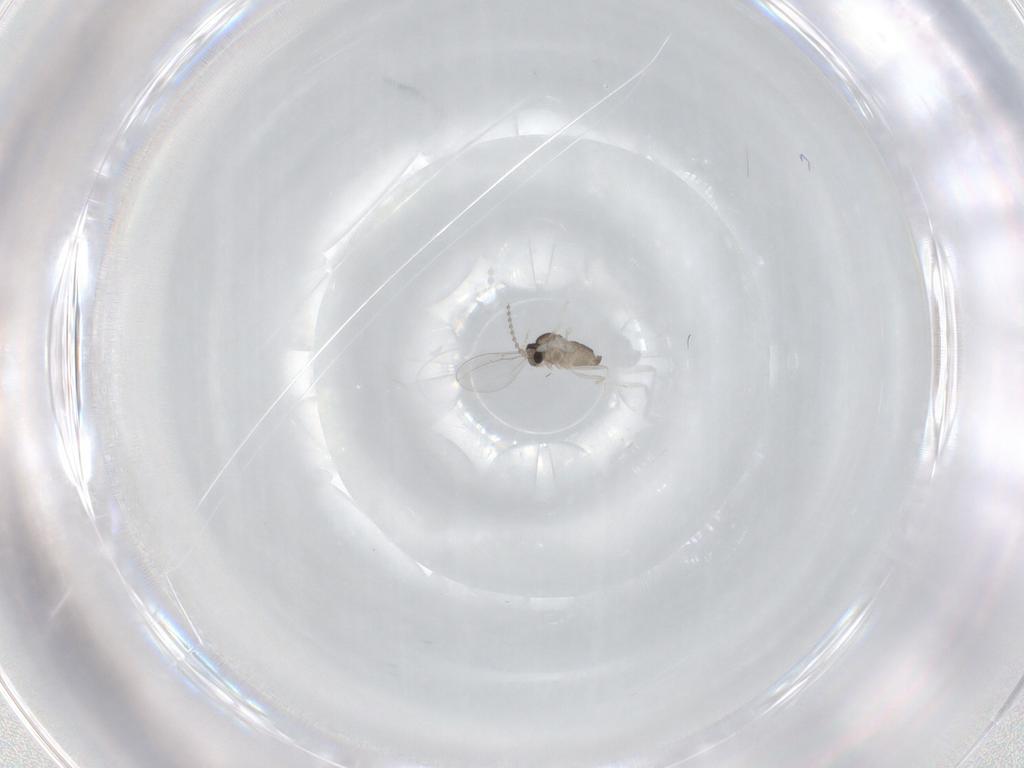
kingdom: Animalia
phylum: Arthropoda
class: Insecta
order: Diptera
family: Cecidomyiidae
